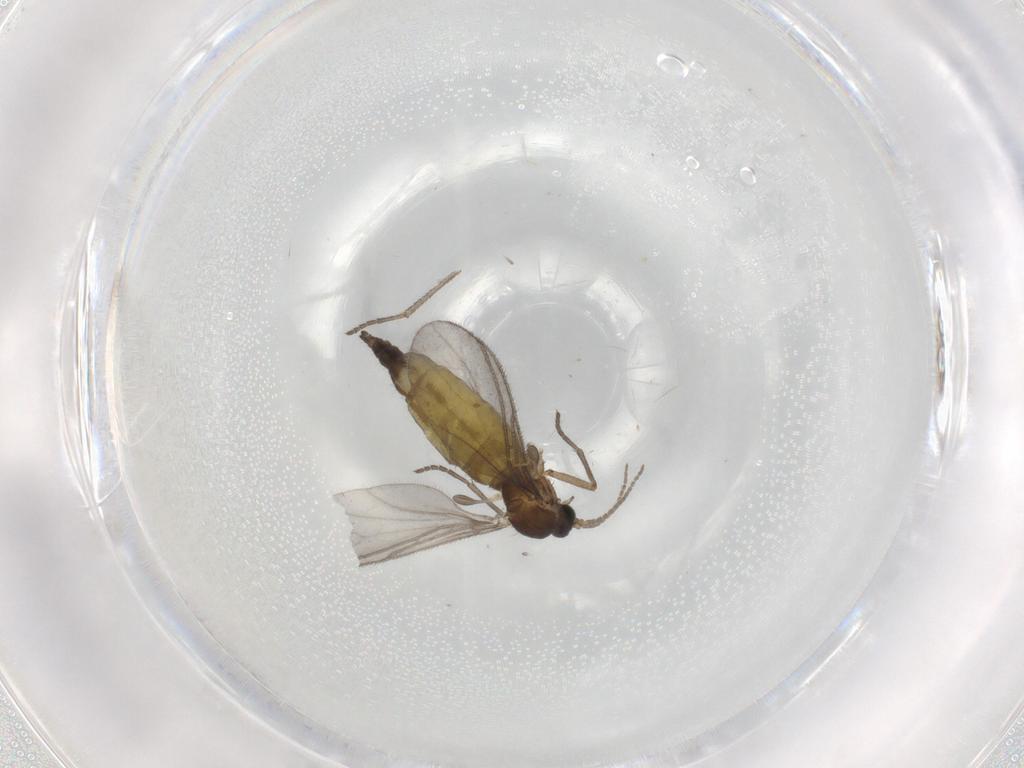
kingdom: Animalia
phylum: Arthropoda
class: Insecta
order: Diptera
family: Sciaridae
